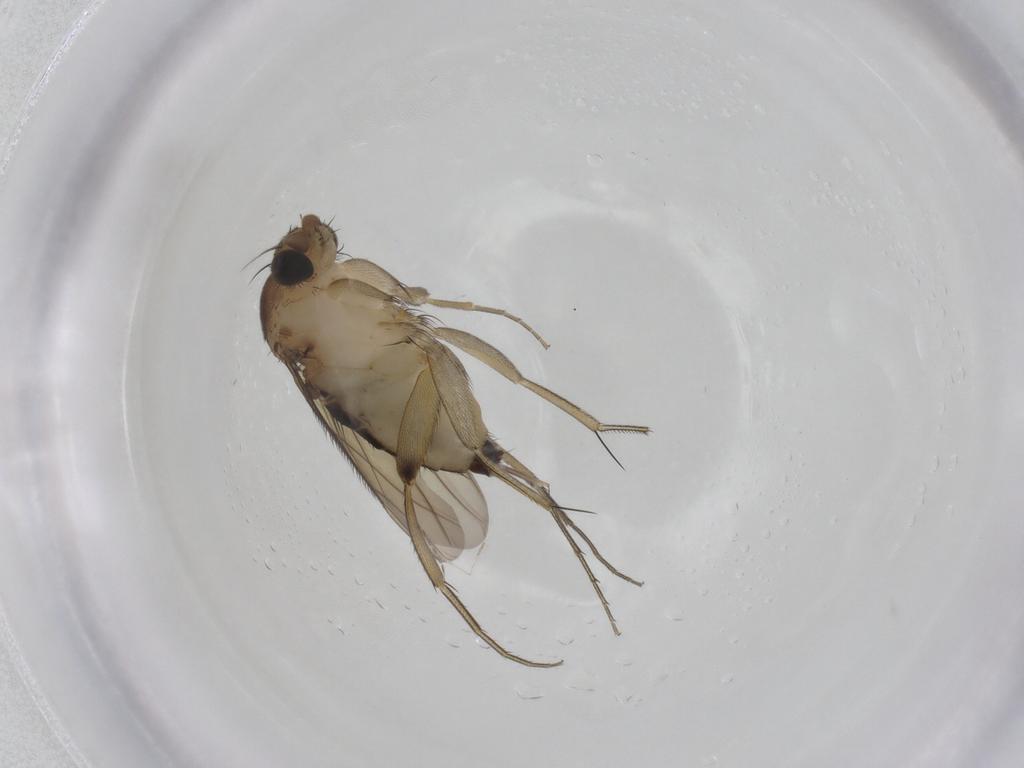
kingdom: Animalia
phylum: Arthropoda
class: Insecta
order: Diptera
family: Phoridae
